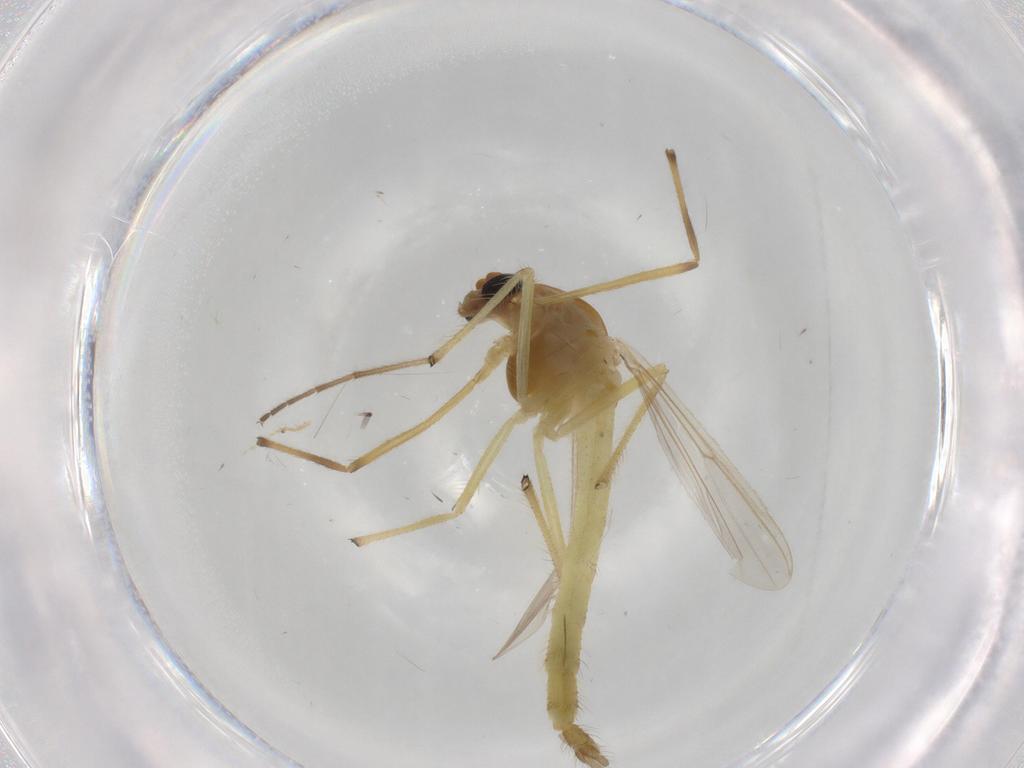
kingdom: Animalia
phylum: Arthropoda
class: Insecta
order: Diptera
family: Chironomidae
